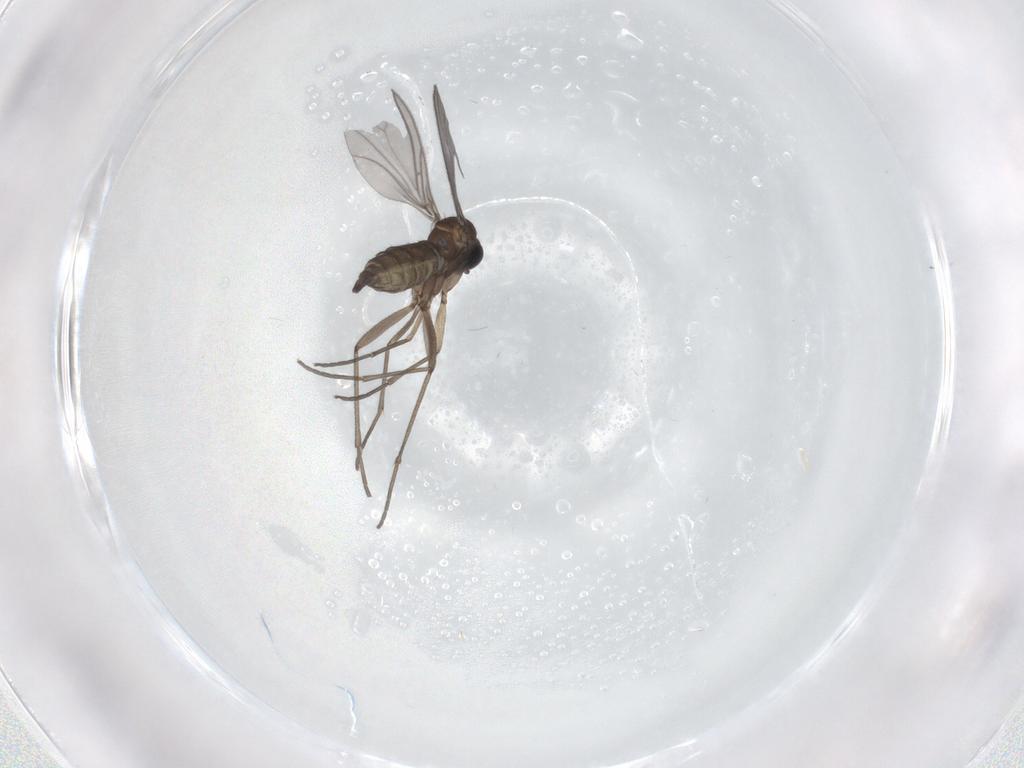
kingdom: Animalia
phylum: Arthropoda
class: Insecta
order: Diptera
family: Sciaridae
